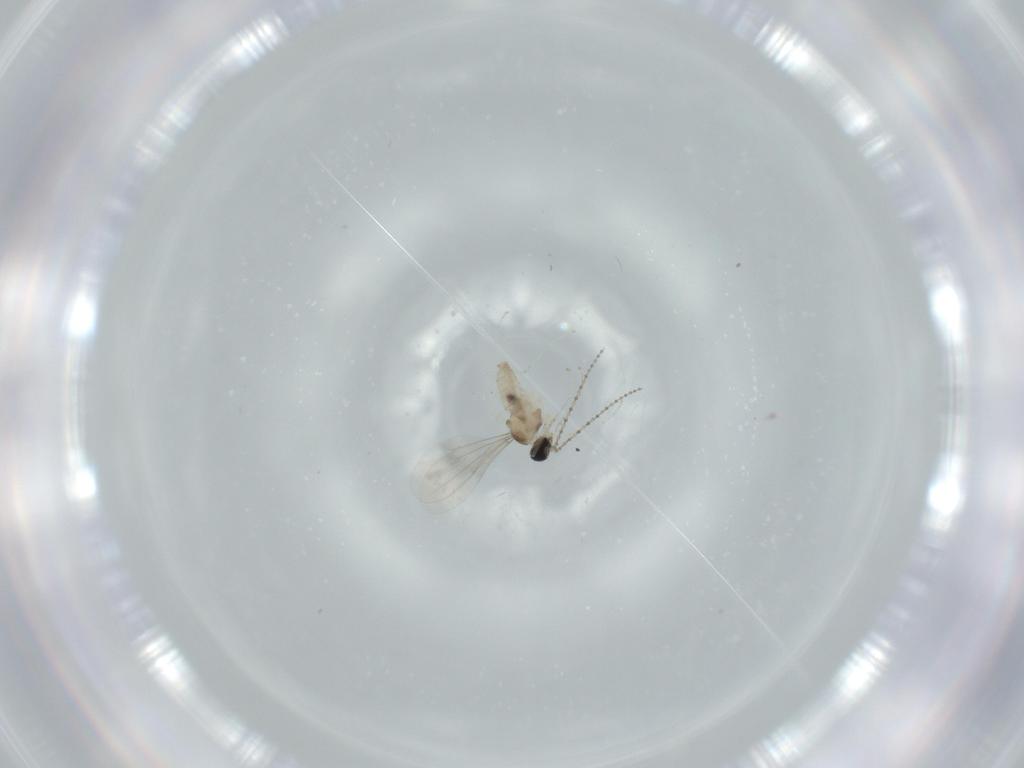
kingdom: Animalia
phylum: Arthropoda
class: Insecta
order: Diptera
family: Cecidomyiidae
